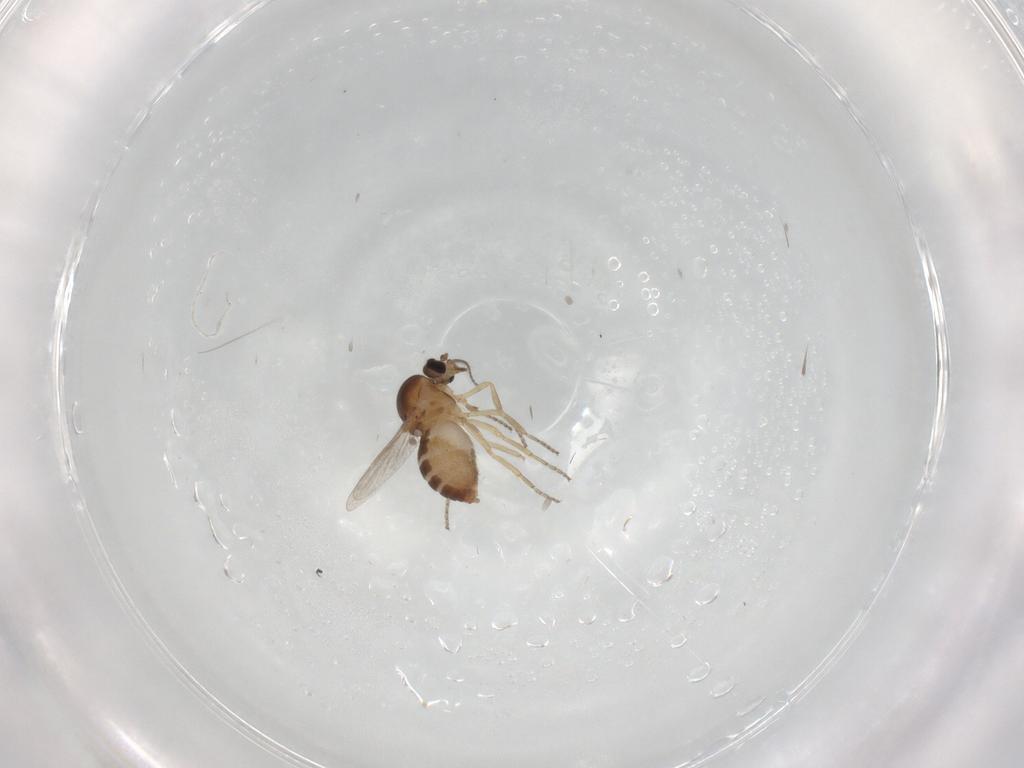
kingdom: Animalia
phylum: Arthropoda
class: Insecta
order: Diptera
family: Ceratopogonidae
